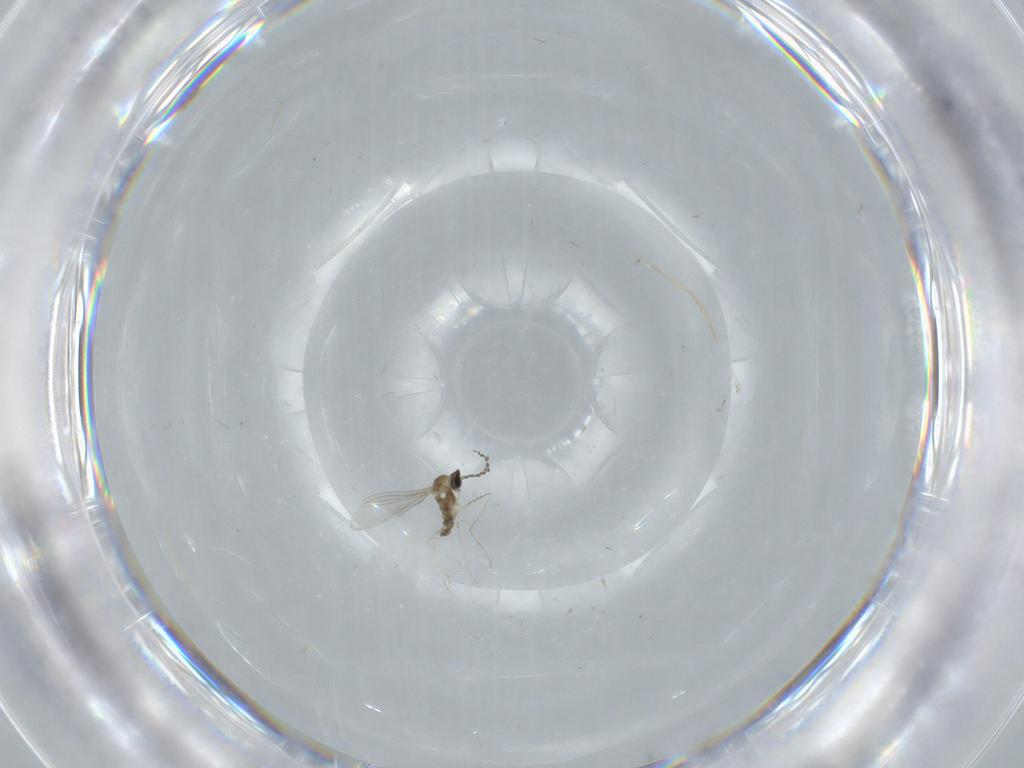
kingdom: Animalia
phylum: Arthropoda
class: Insecta
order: Diptera
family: Cecidomyiidae
